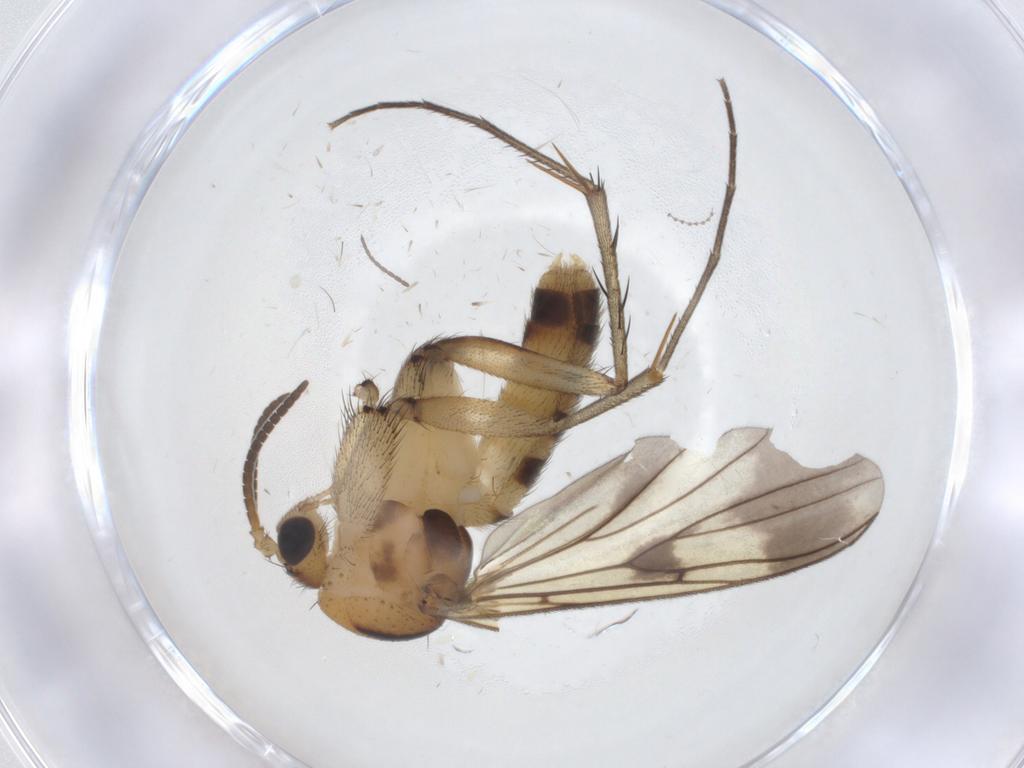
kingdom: Animalia
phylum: Arthropoda
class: Insecta
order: Diptera
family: Mycetophilidae
